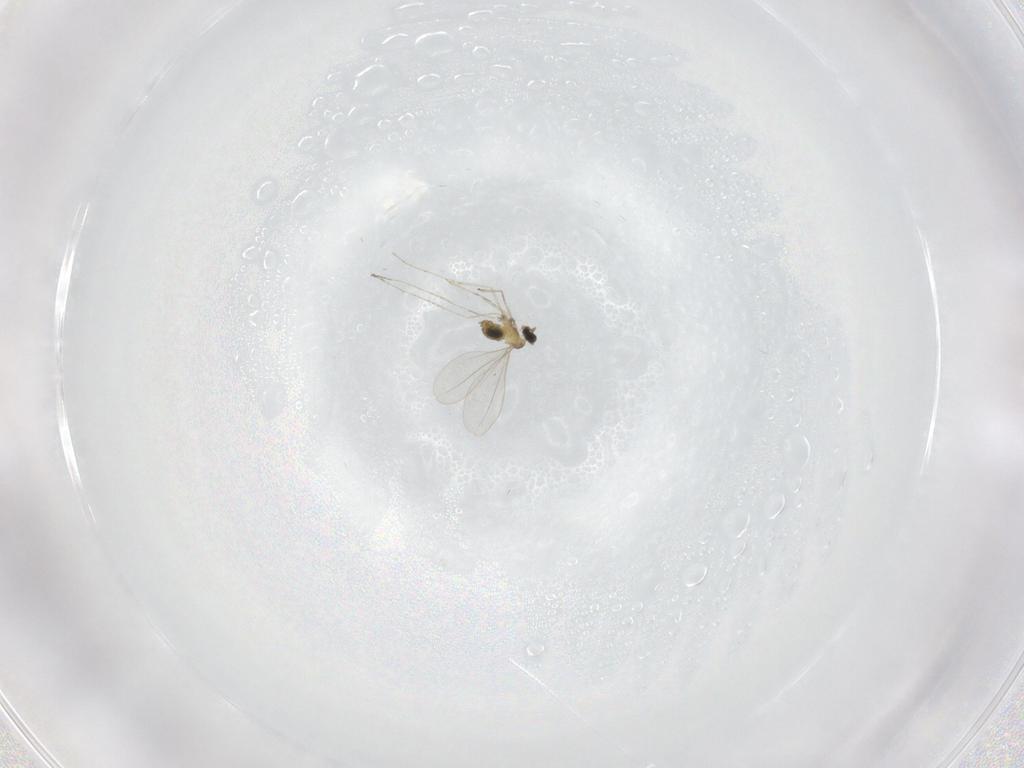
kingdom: Animalia
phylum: Arthropoda
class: Insecta
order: Diptera
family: Cecidomyiidae
